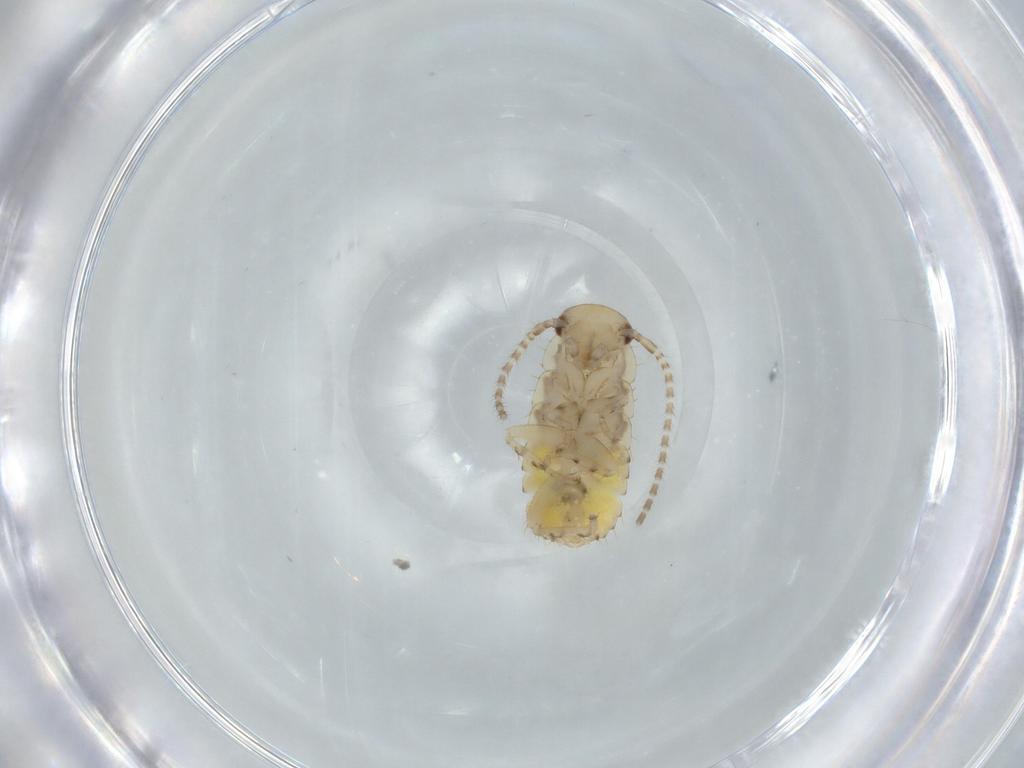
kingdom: Animalia
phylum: Arthropoda
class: Insecta
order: Blattodea
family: Ectobiidae
